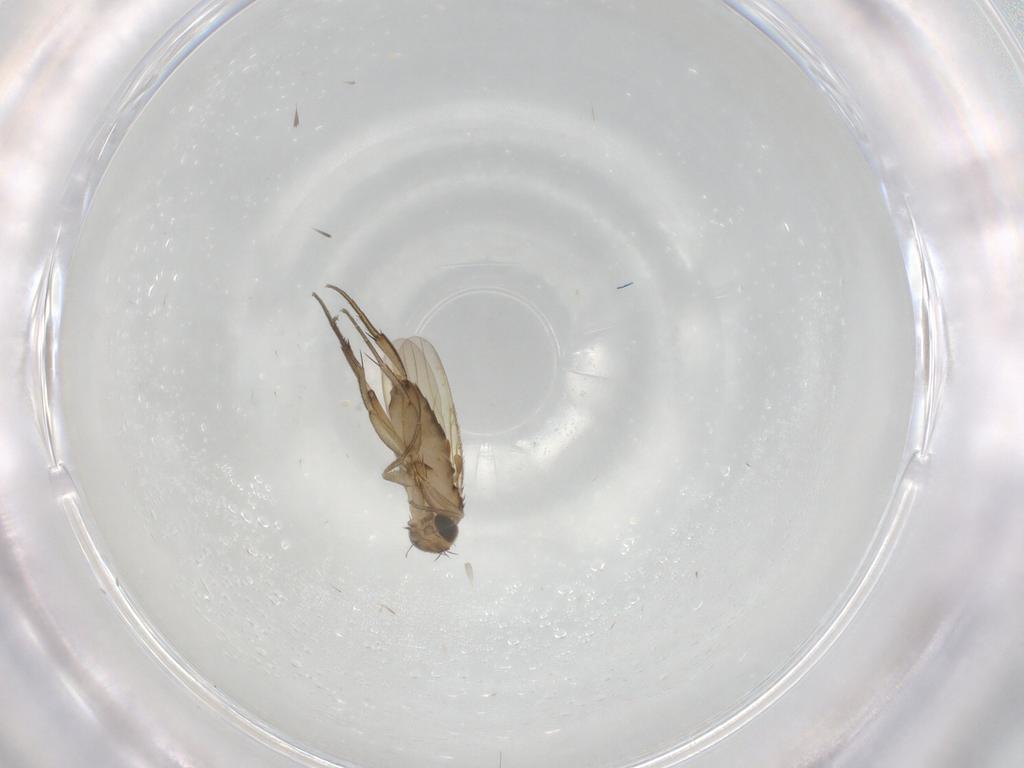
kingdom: Animalia
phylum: Arthropoda
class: Insecta
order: Diptera
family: Phoridae
